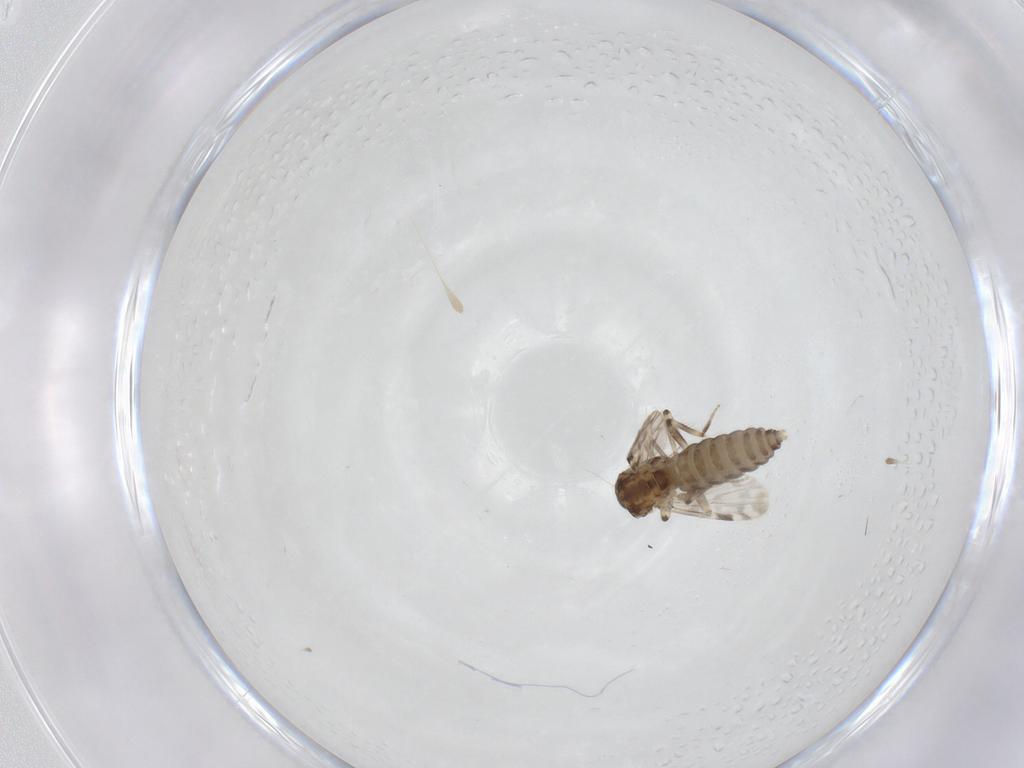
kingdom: Animalia
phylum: Arthropoda
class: Insecta
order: Diptera
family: Phoridae
